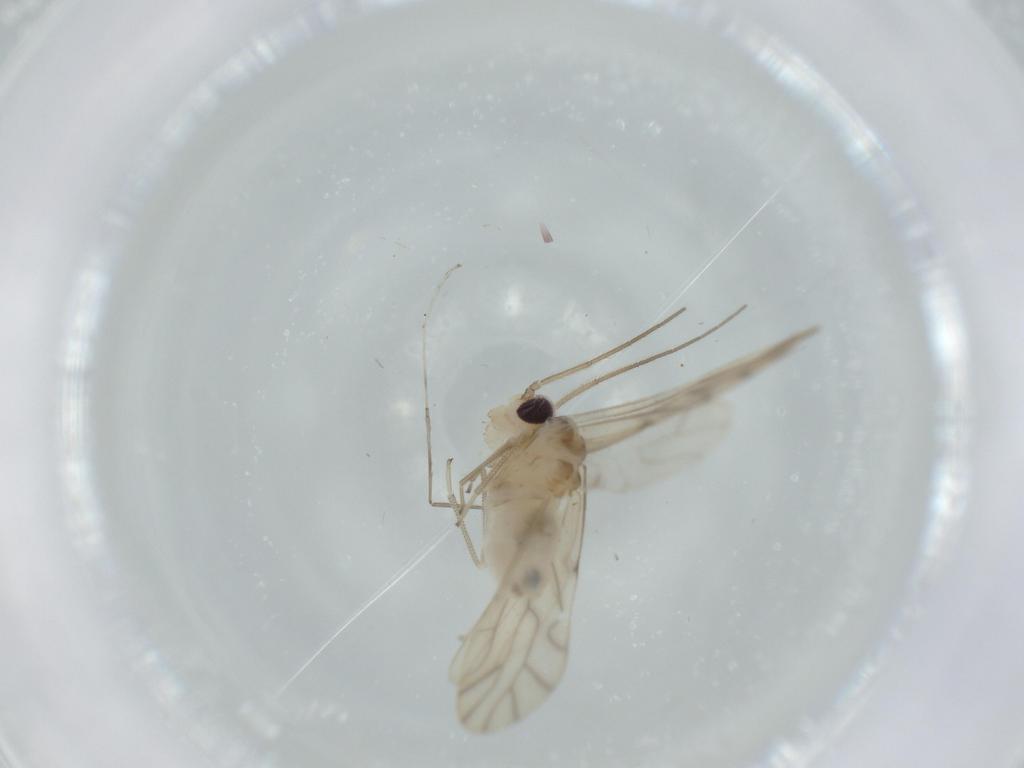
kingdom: Animalia
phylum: Arthropoda
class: Insecta
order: Psocodea
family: Caeciliusidae
